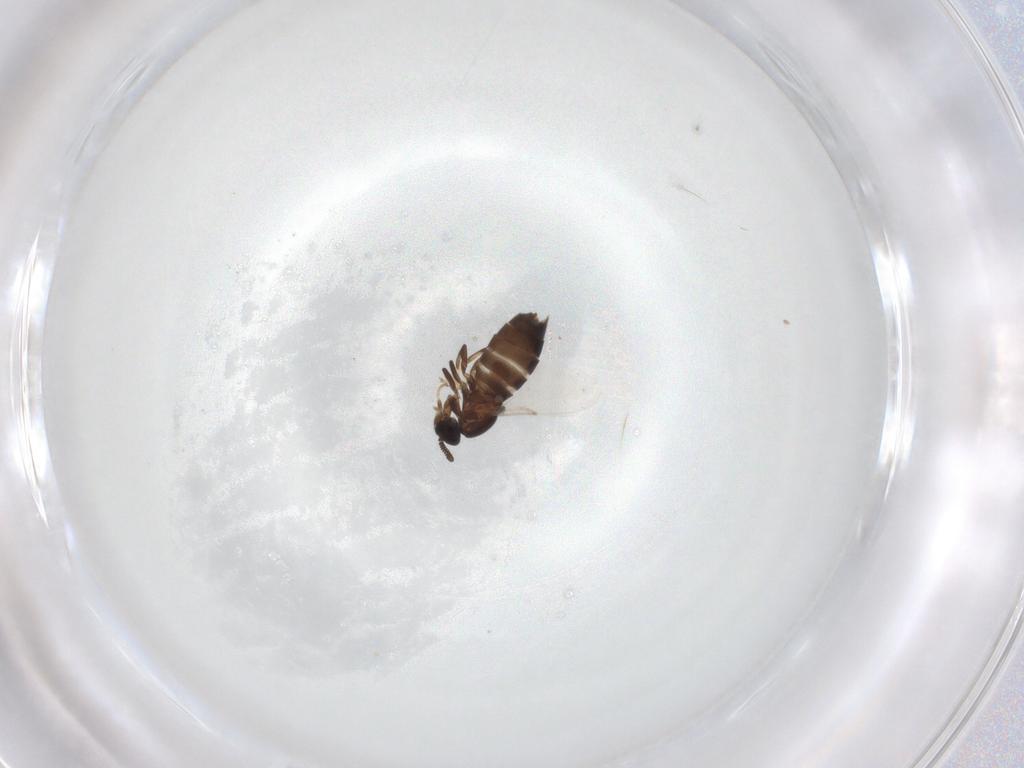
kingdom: Animalia
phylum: Arthropoda
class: Insecta
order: Diptera
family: Scatopsidae
